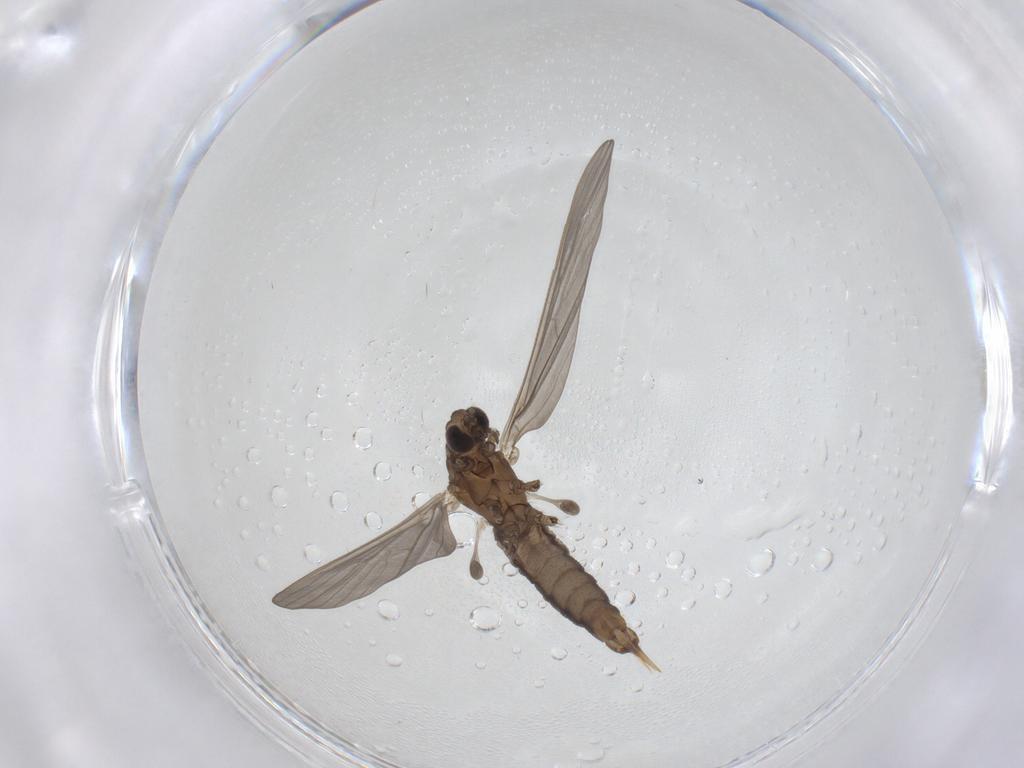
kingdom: Animalia
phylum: Arthropoda
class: Insecta
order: Diptera
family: Limoniidae
